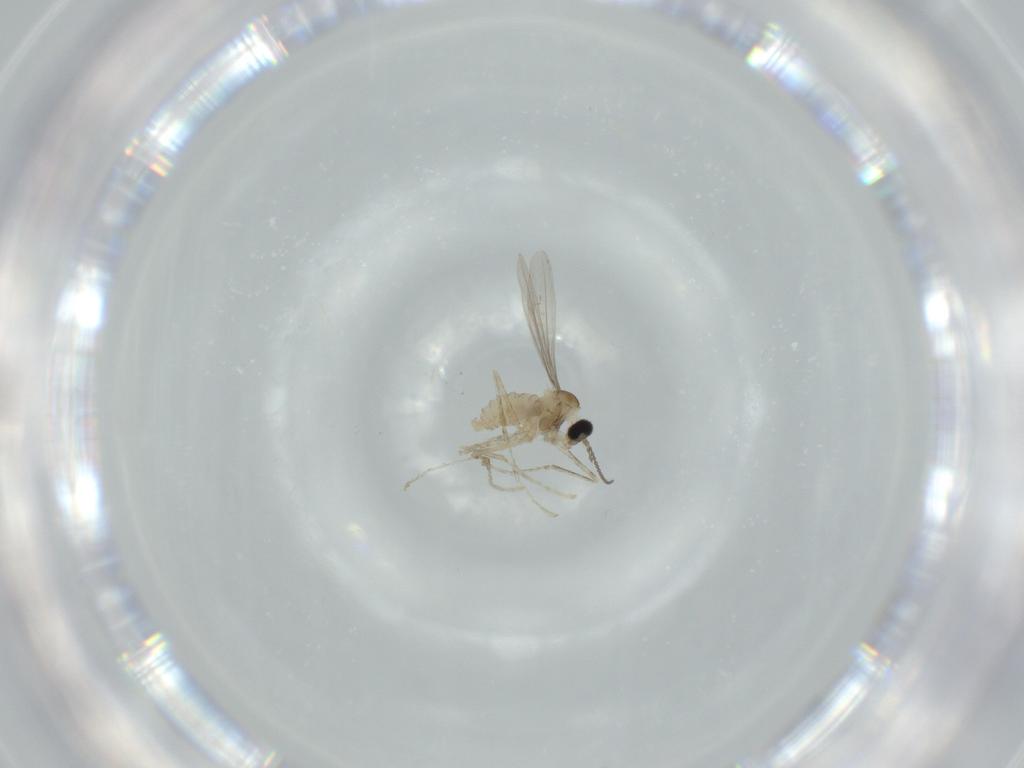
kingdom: Animalia
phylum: Arthropoda
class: Insecta
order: Diptera
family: Cecidomyiidae
